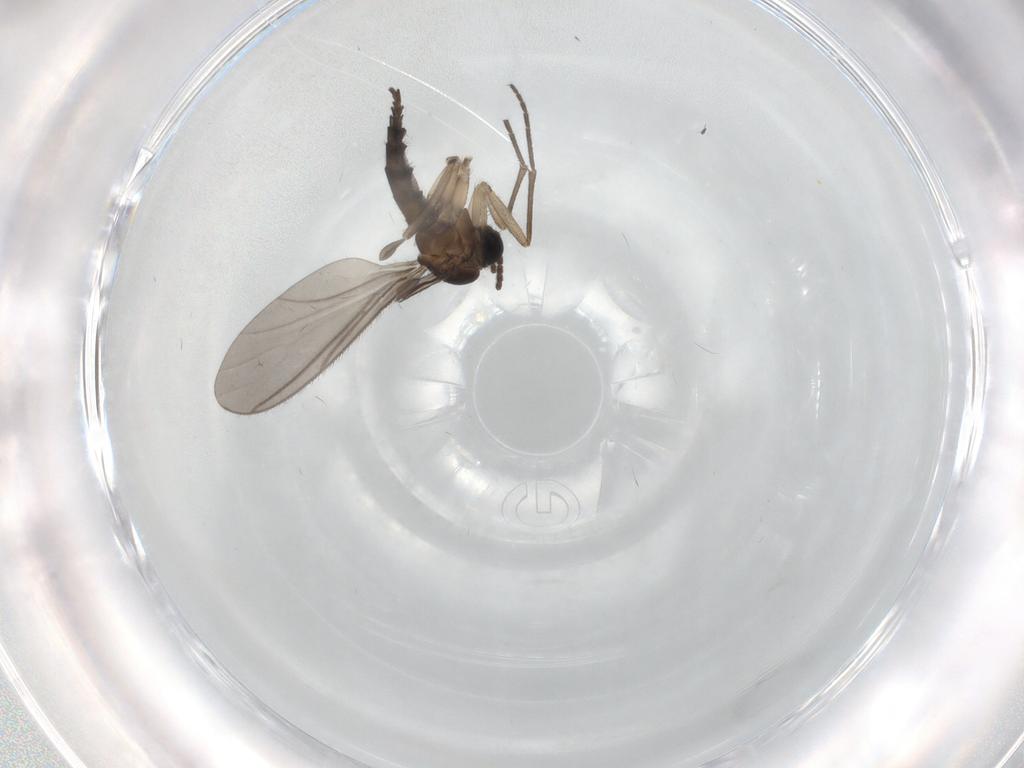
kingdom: Animalia
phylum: Arthropoda
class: Insecta
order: Diptera
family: Sciaridae
